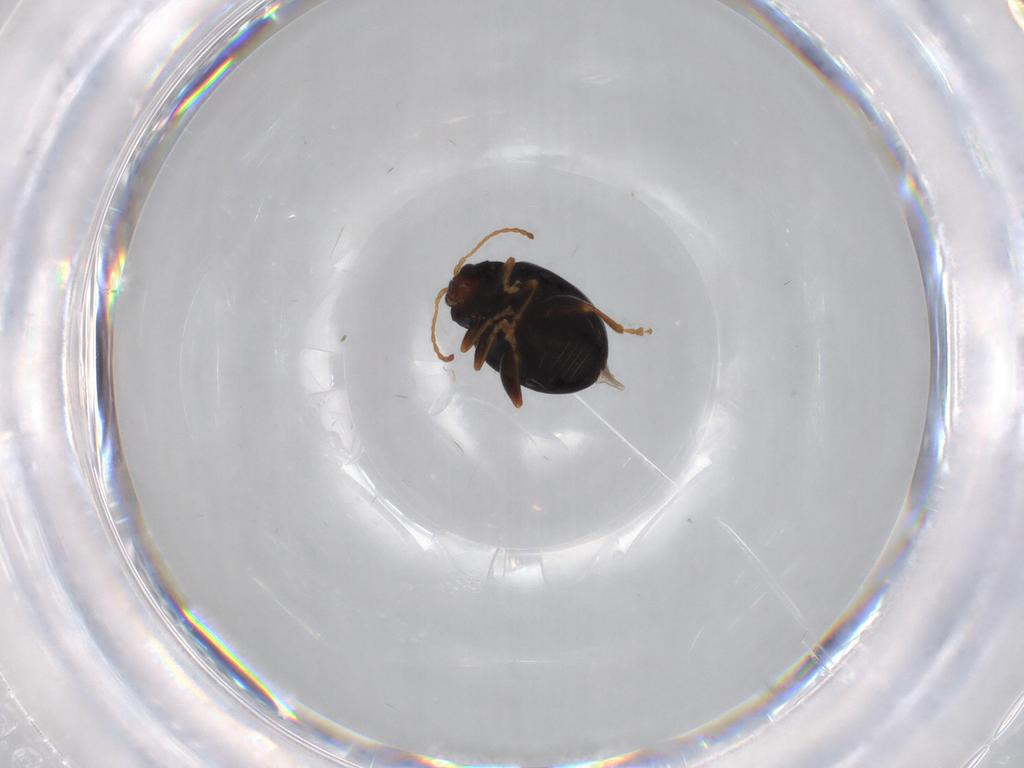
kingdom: Animalia
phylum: Arthropoda
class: Insecta
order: Coleoptera
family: Chrysomelidae
